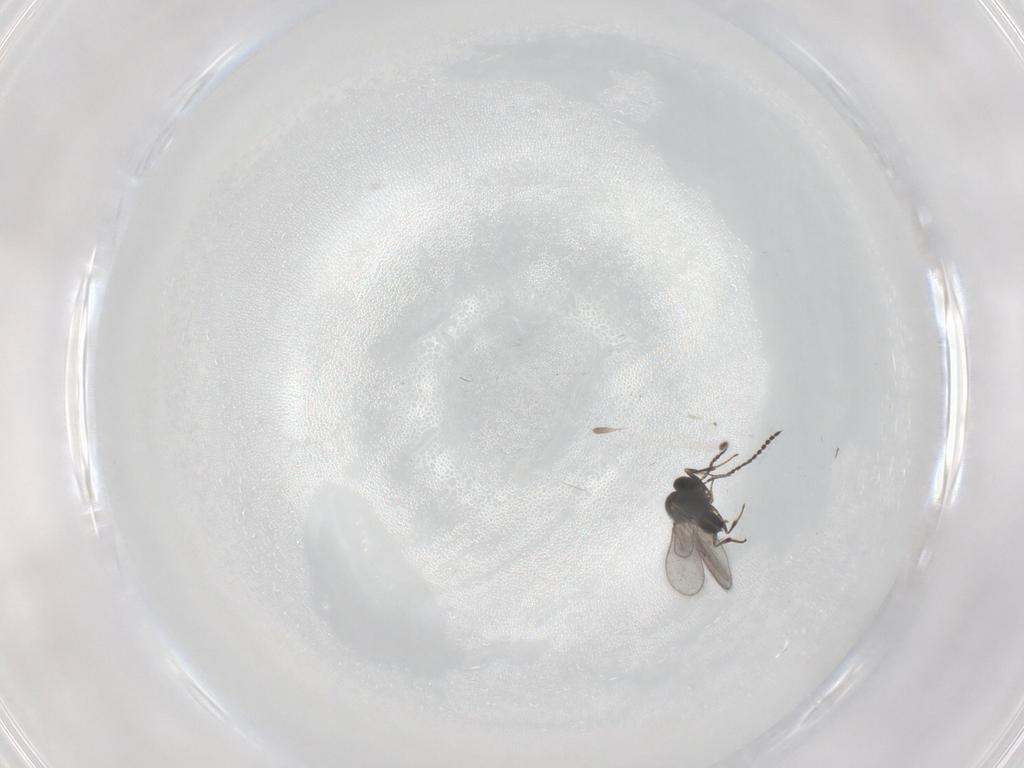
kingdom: Animalia
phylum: Arthropoda
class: Insecta
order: Hymenoptera
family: Scelionidae
